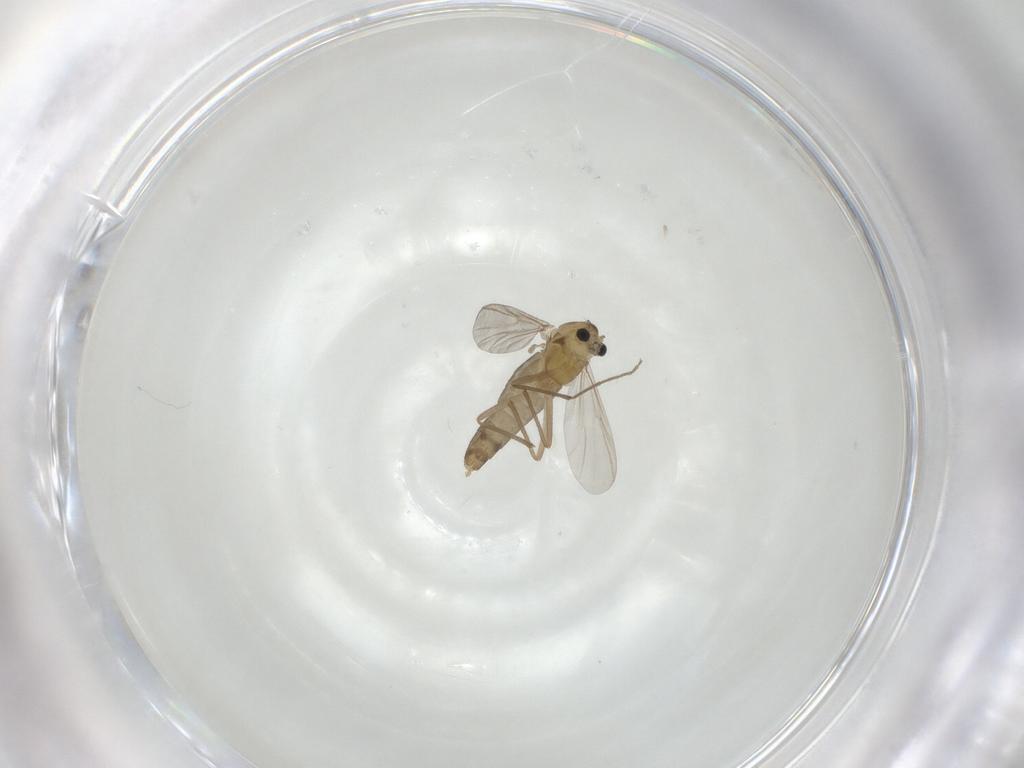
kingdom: Animalia
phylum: Arthropoda
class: Insecta
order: Diptera
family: Chironomidae
